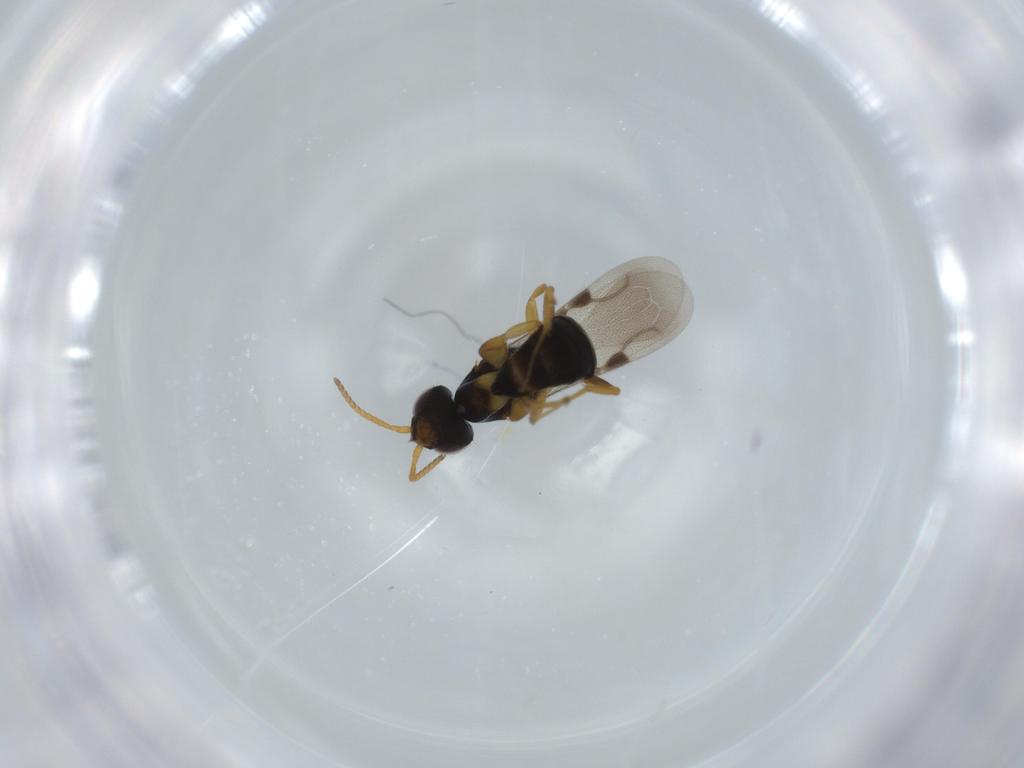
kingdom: Animalia
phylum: Arthropoda
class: Insecta
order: Hymenoptera
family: Bethylidae
